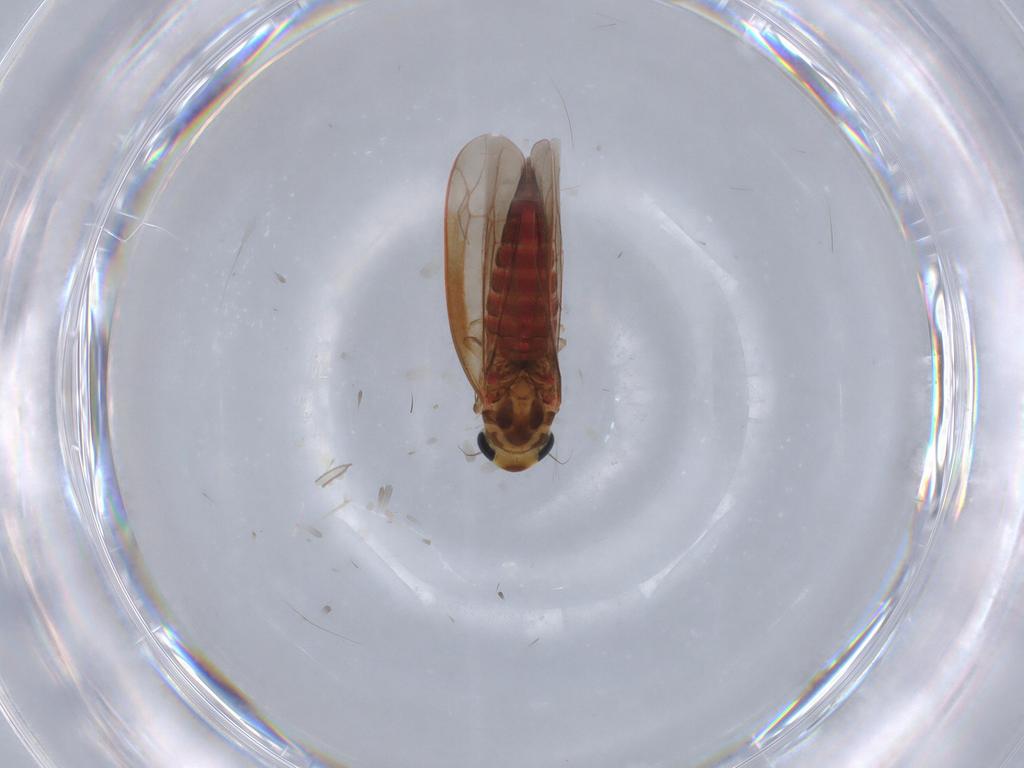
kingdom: Animalia
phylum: Arthropoda
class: Insecta
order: Hemiptera
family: Cicadellidae
